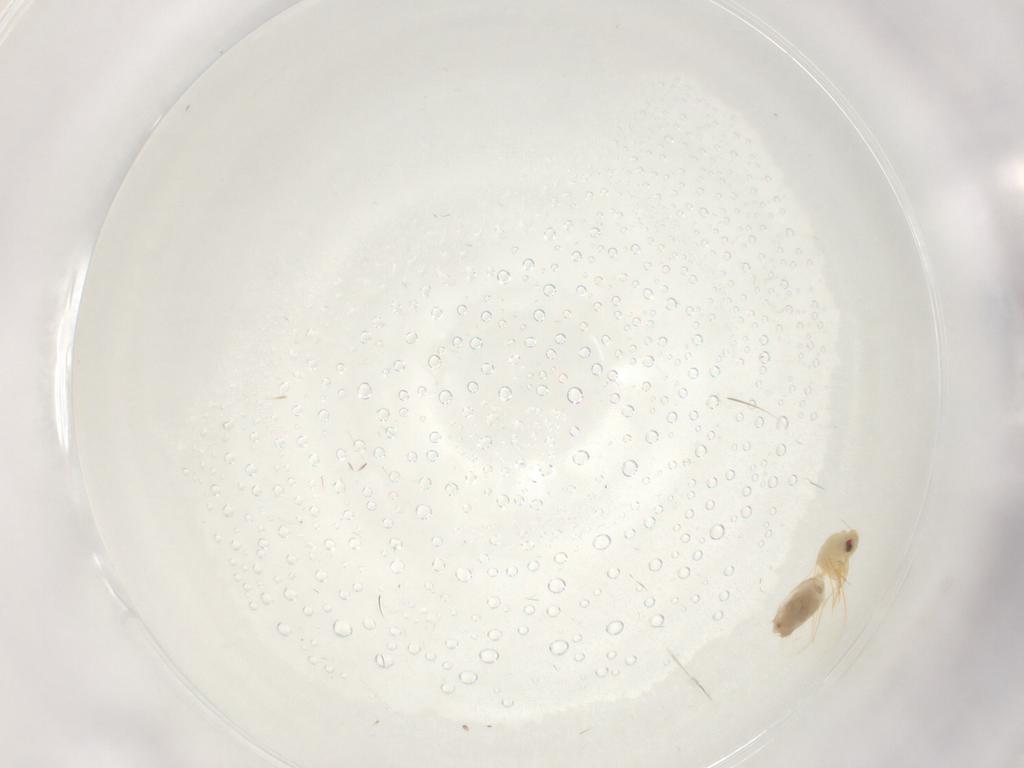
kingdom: Animalia
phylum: Arthropoda
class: Insecta
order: Hemiptera
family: Aleyrodidae
